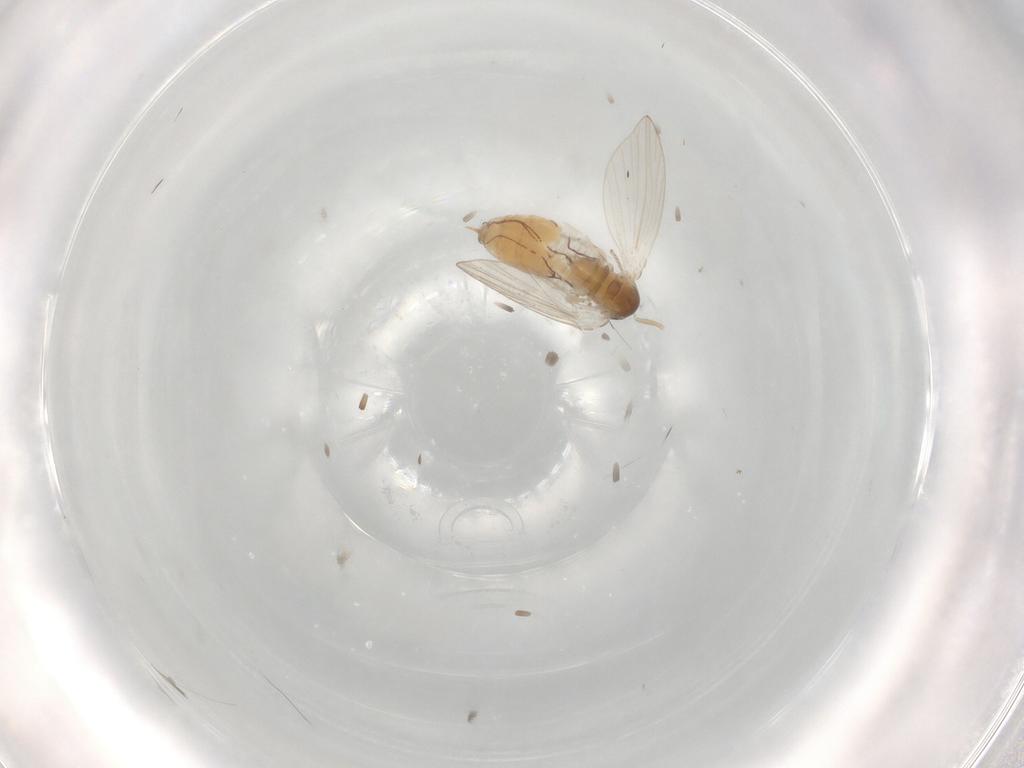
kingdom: Animalia
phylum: Arthropoda
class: Insecta
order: Diptera
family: Psychodidae
